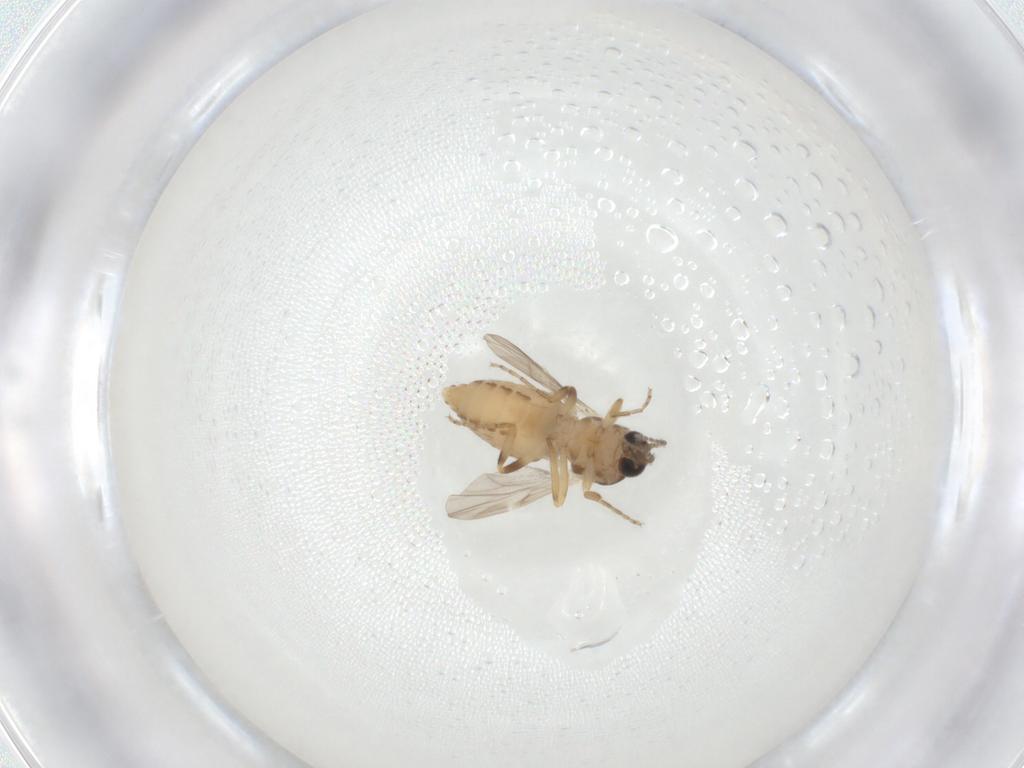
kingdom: Animalia
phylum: Arthropoda
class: Insecta
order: Diptera
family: Ceratopogonidae
